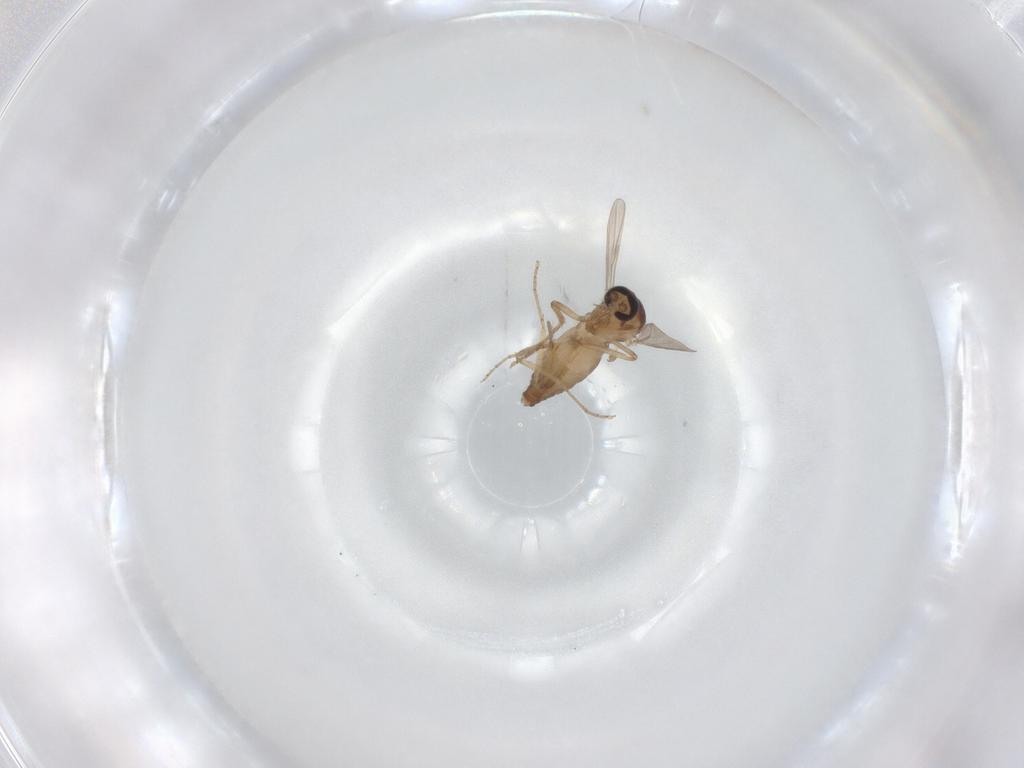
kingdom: Animalia
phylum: Arthropoda
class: Insecta
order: Diptera
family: Ceratopogonidae
